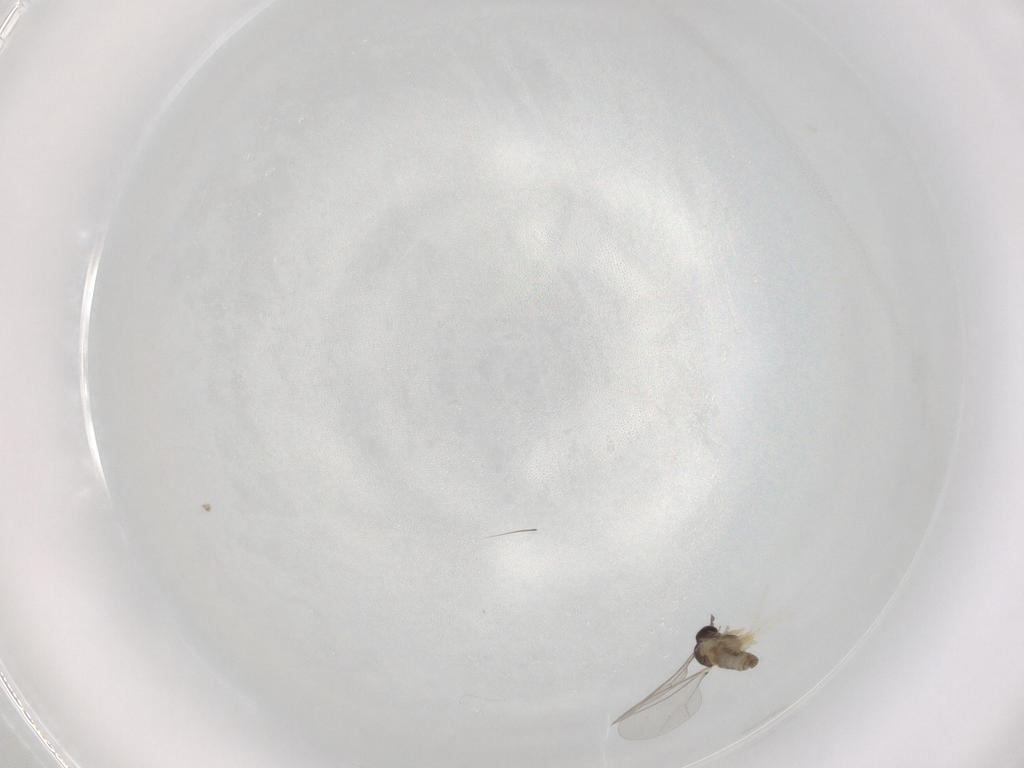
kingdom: Animalia
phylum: Arthropoda
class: Insecta
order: Diptera
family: Cecidomyiidae
